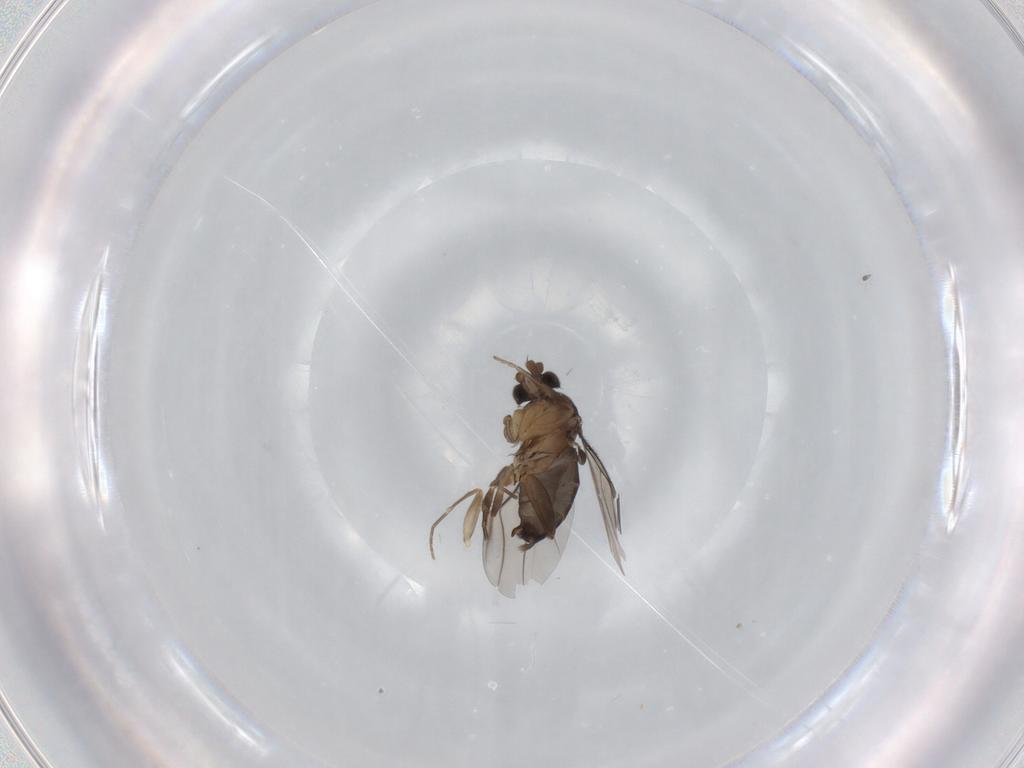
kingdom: Animalia
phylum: Arthropoda
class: Insecta
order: Diptera
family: Phoridae
